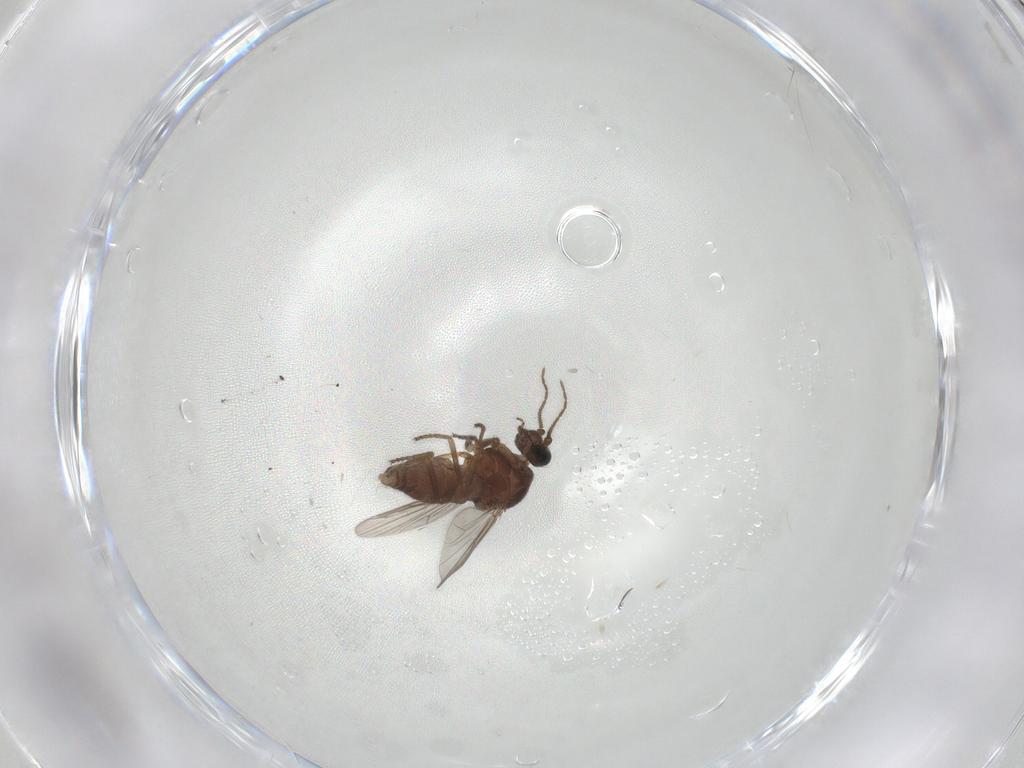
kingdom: Animalia
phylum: Arthropoda
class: Insecta
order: Diptera
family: Ceratopogonidae
